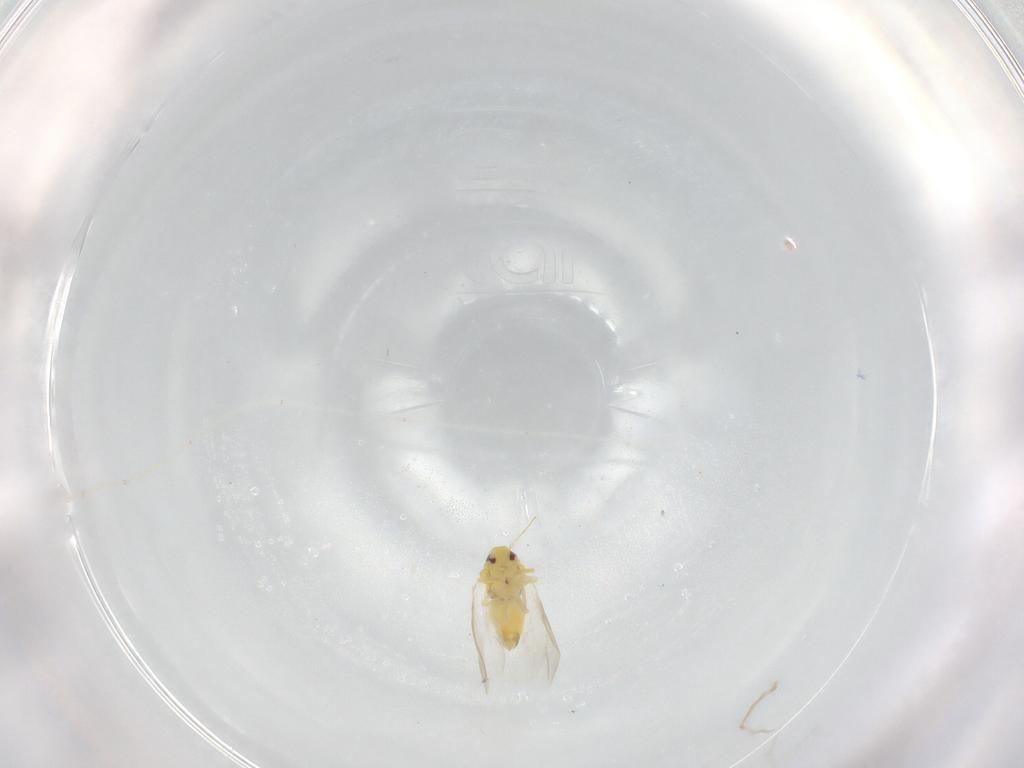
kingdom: Animalia
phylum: Arthropoda
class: Insecta
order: Hemiptera
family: Aleyrodidae
